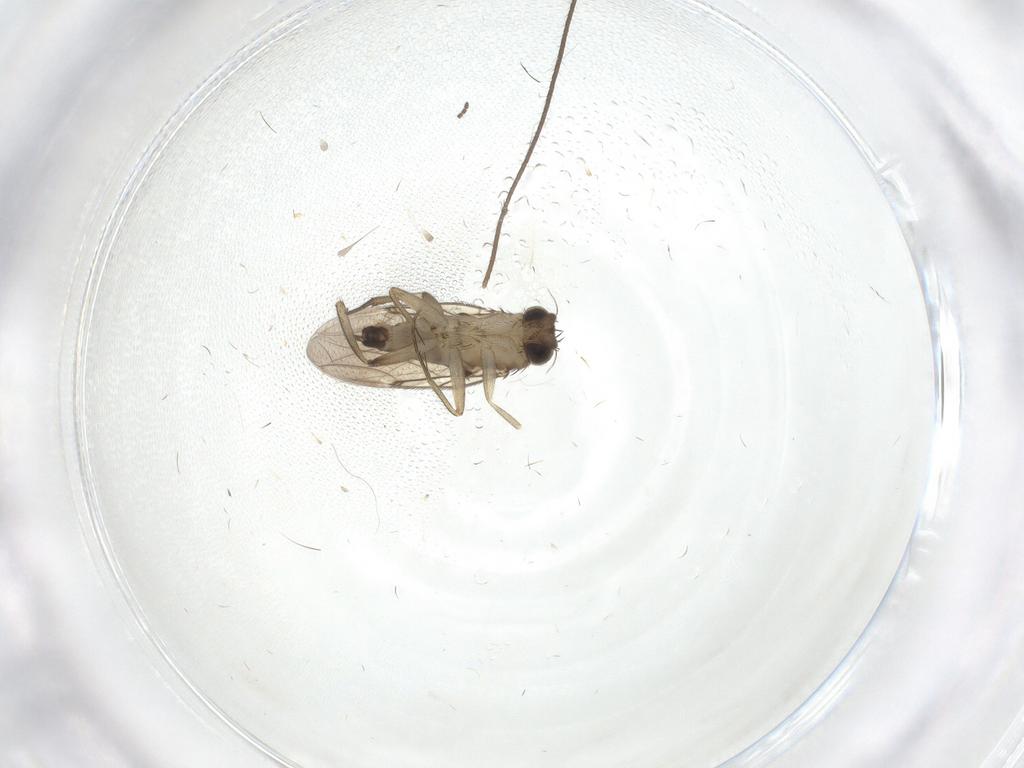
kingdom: Animalia
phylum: Arthropoda
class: Insecta
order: Diptera
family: Phoridae
